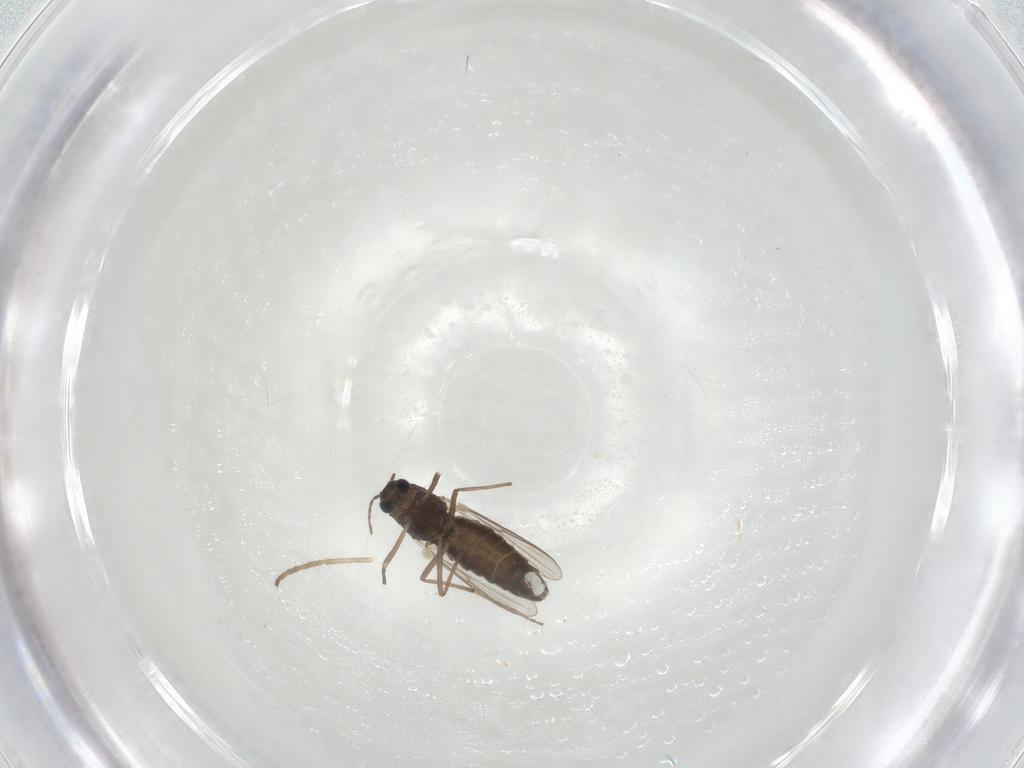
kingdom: Animalia
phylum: Arthropoda
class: Insecta
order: Diptera
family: Chironomidae
